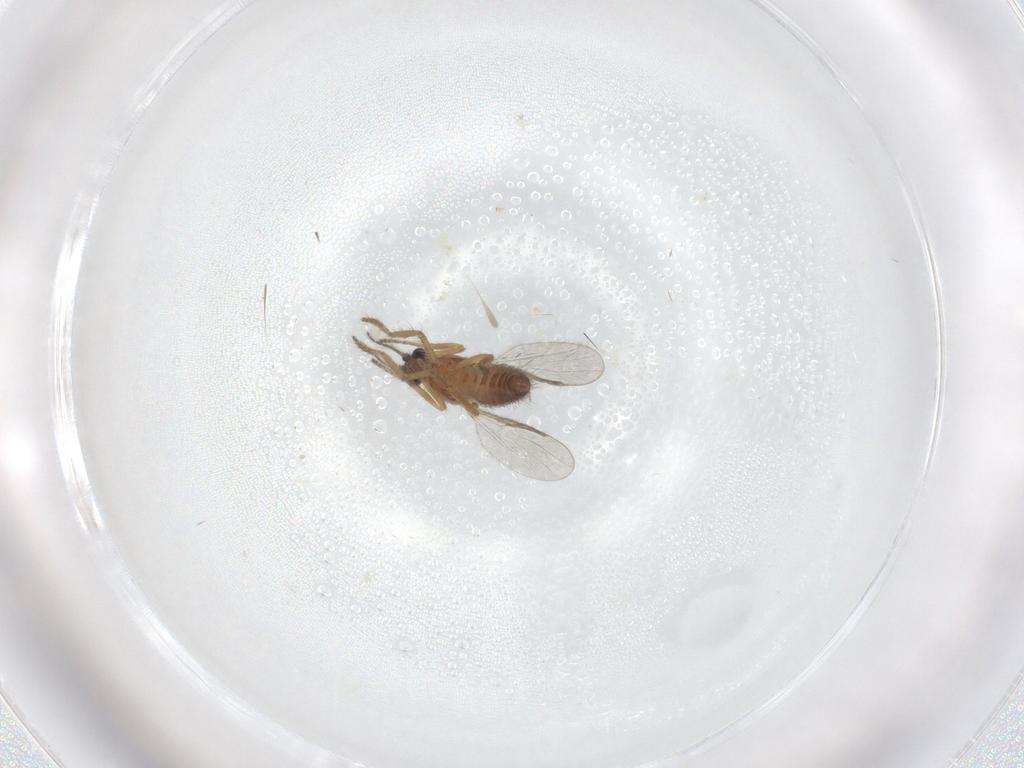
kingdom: Animalia
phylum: Arthropoda
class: Insecta
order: Diptera
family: Ceratopogonidae
